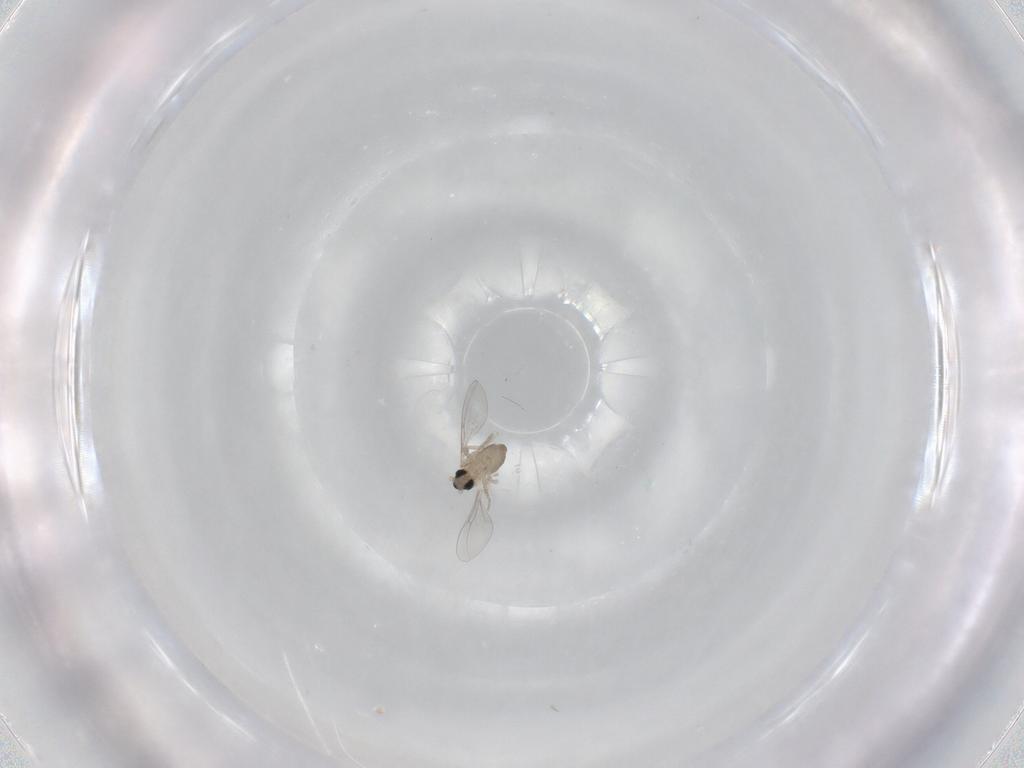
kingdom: Animalia
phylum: Arthropoda
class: Insecta
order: Diptera
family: Cecidomyiidae
